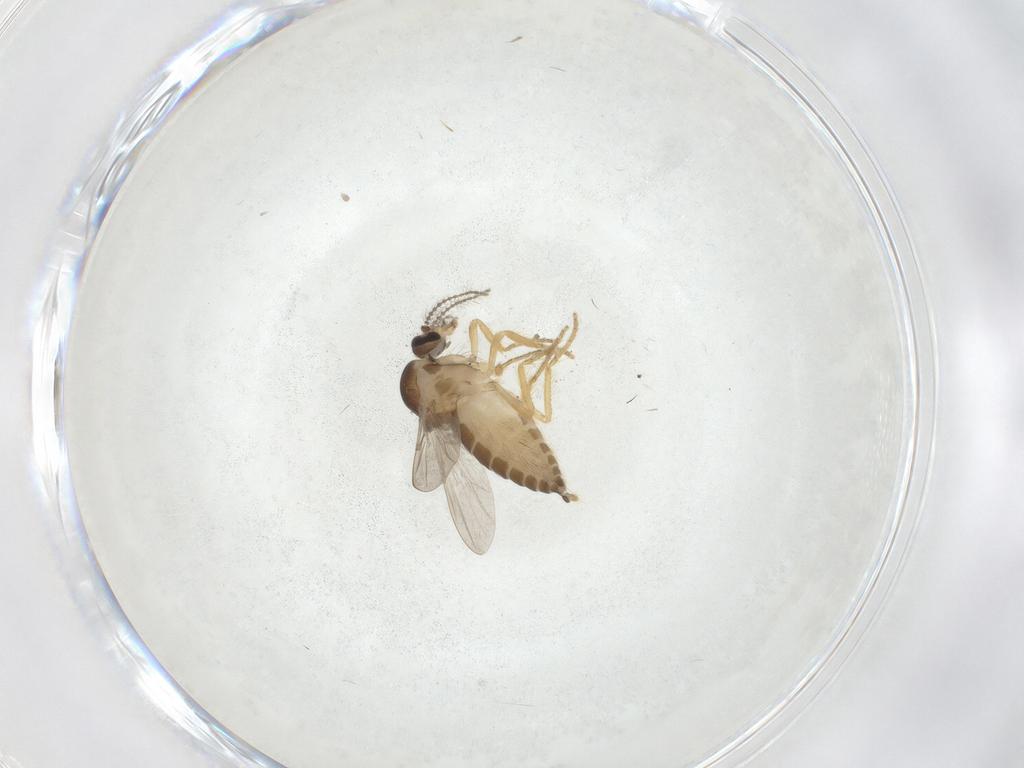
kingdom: Animalia
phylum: Arthropoda
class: Insecta
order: Diptera
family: Ceratopogonidae
